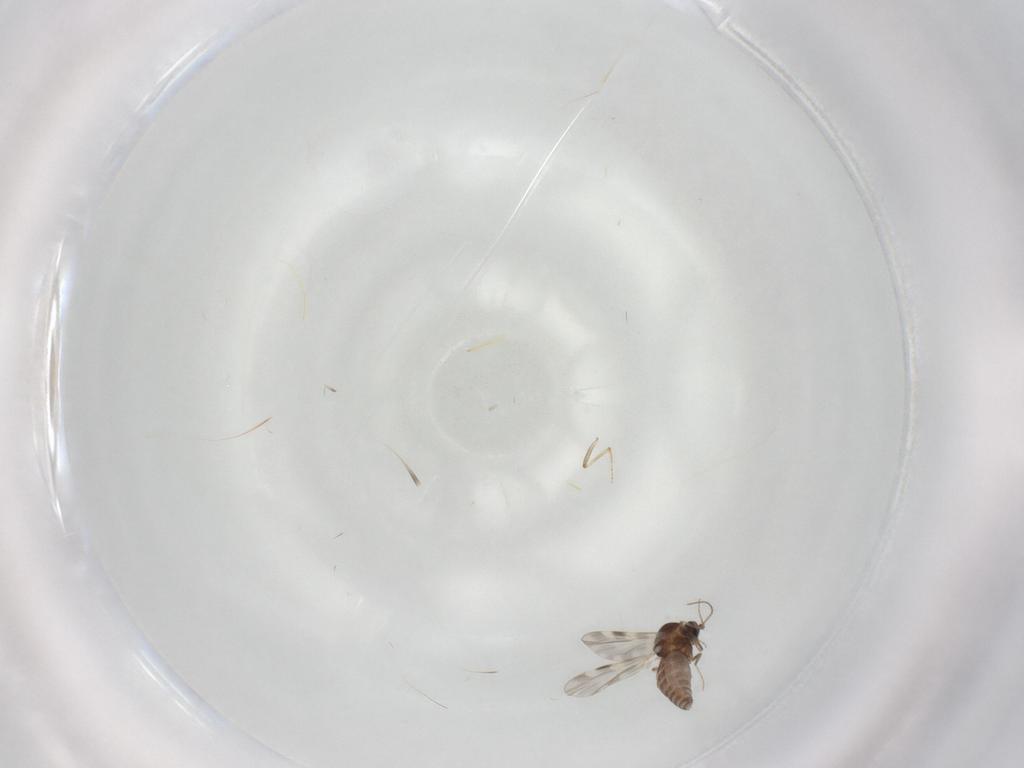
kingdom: Animalia
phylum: Arthropoda
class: Insecta
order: Diptera
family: Ceratopogonidae
